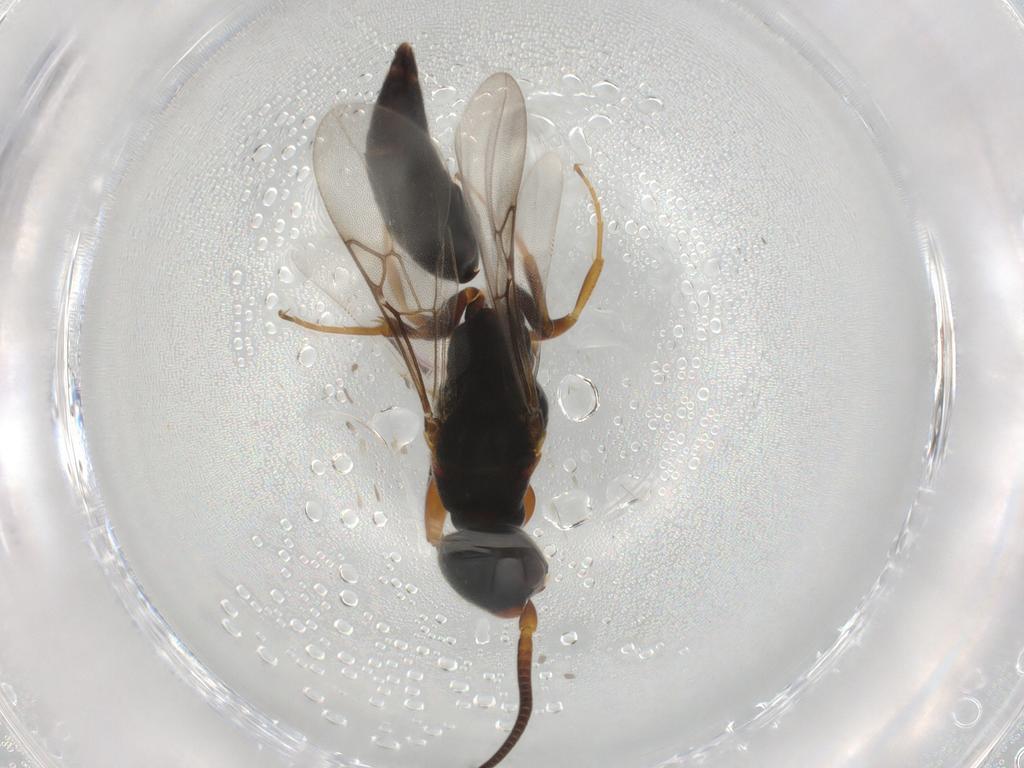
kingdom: Animalia
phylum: Arthropoda
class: Insecta
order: Hymenoptera
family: Sclerogibbidae
